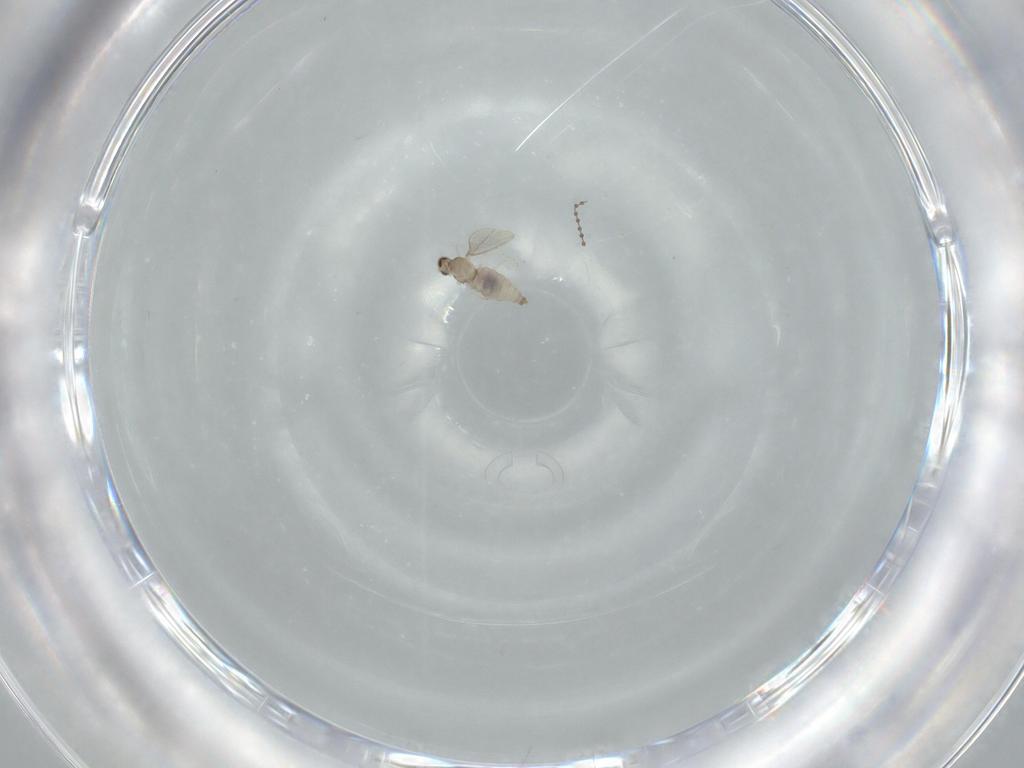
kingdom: Animalia
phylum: Arthropoda
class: Insecta
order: Diptera
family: Cecidomyiidae
